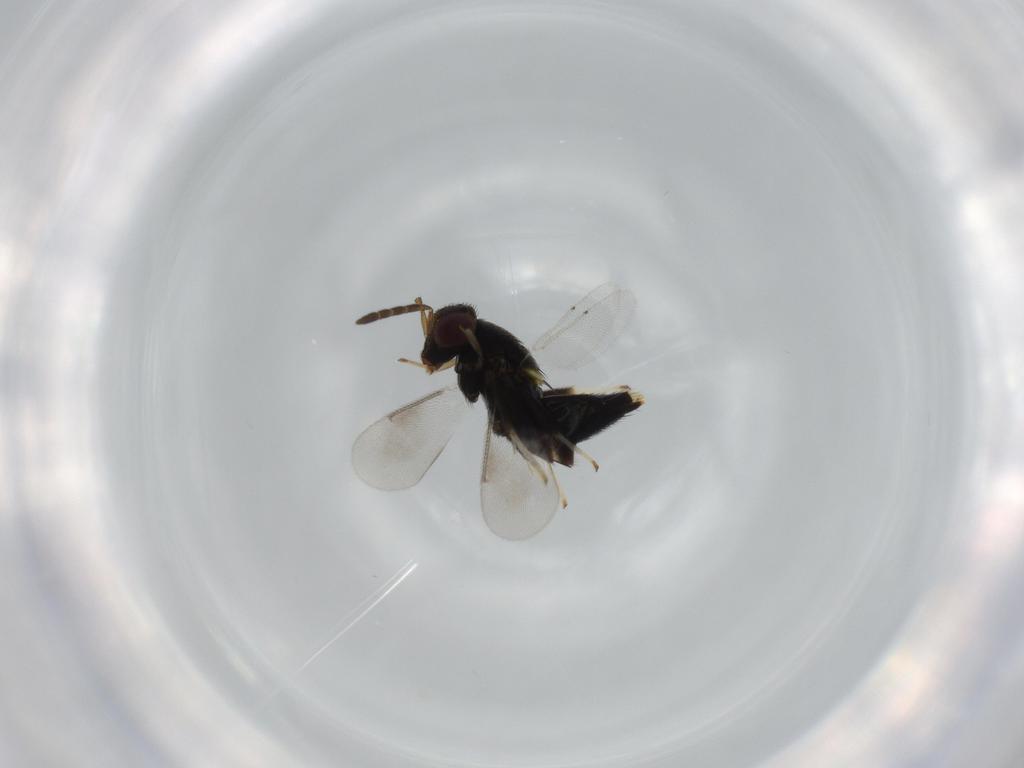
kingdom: Animalia
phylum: Arthropoda
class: Insecta
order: Hymenoptera
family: Aphelinidae
